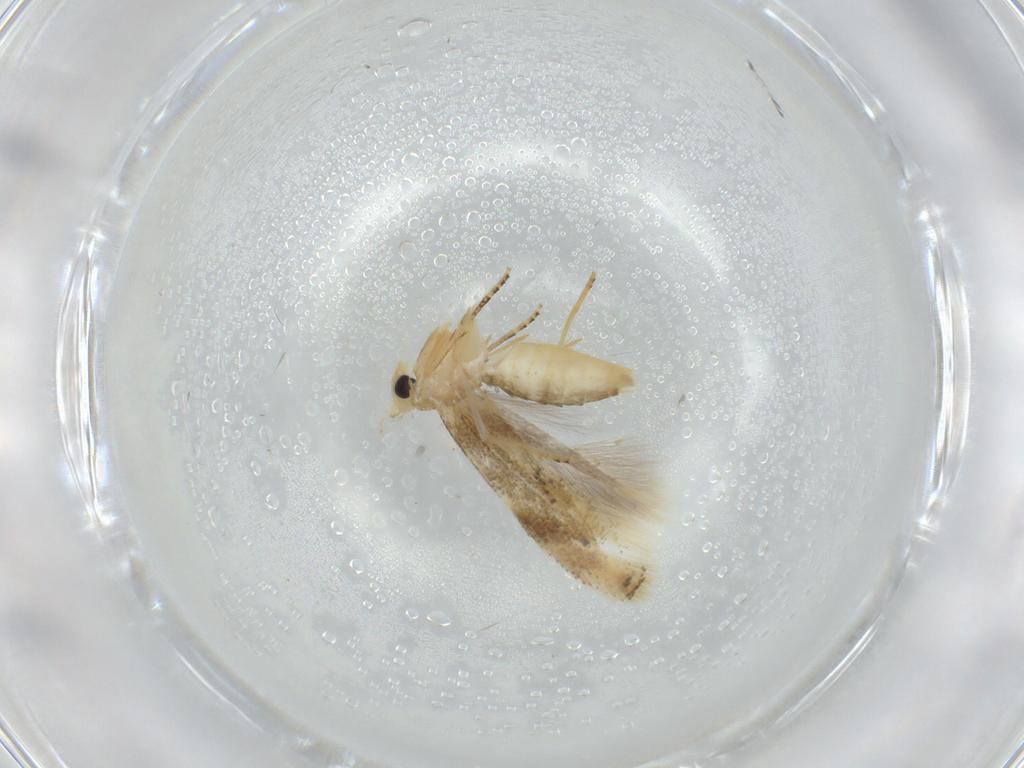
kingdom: Animalia
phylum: Arthropoda
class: Insecta
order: Lepidoptera
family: Bucculatricidae
